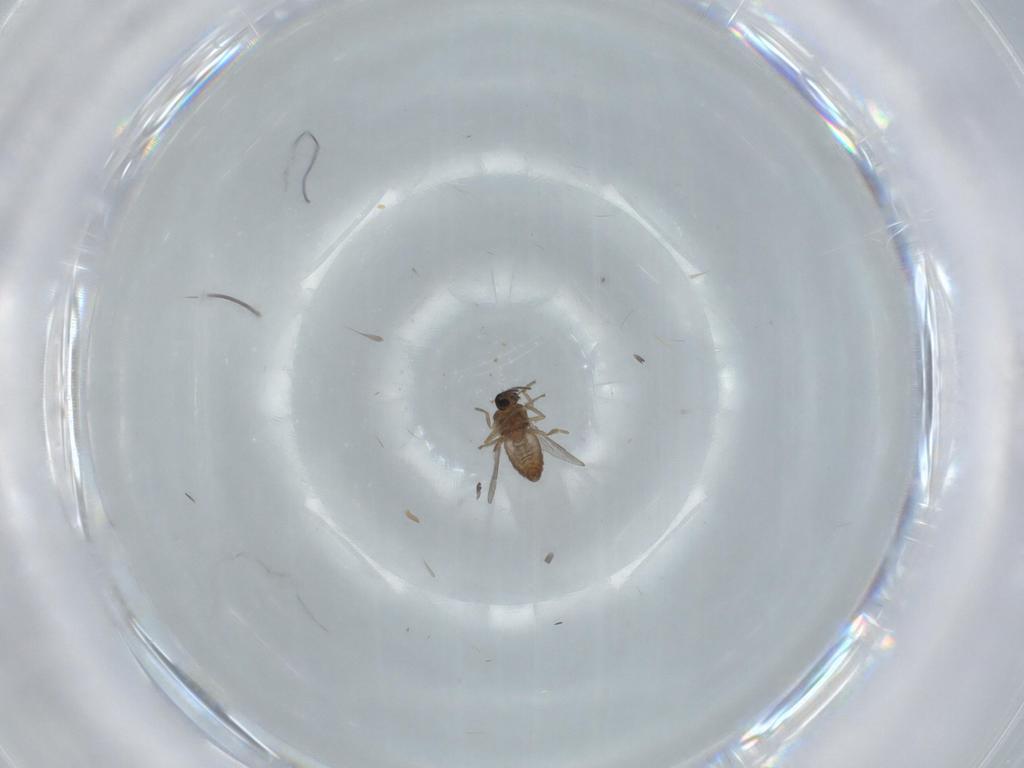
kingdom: Animalia
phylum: Arthropoda
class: Insecta
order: Diptera
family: Ceratopogonidae
